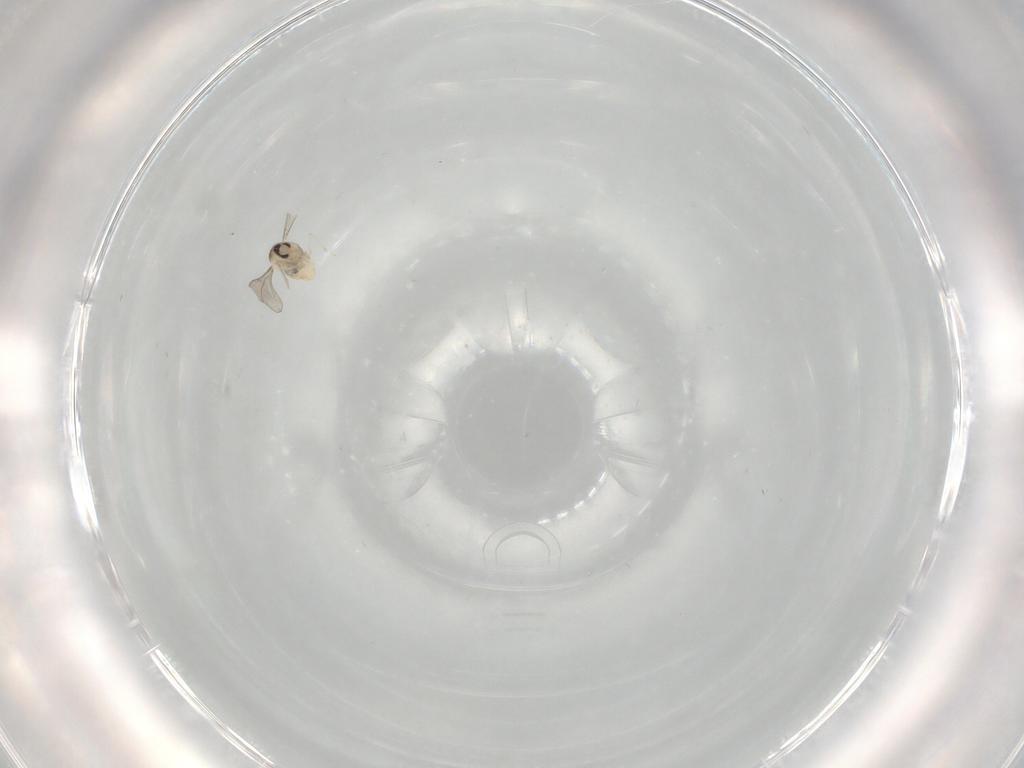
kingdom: Animalia
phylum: Arthropoda
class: Insecta
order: Diptera
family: Cecidomyiidae
